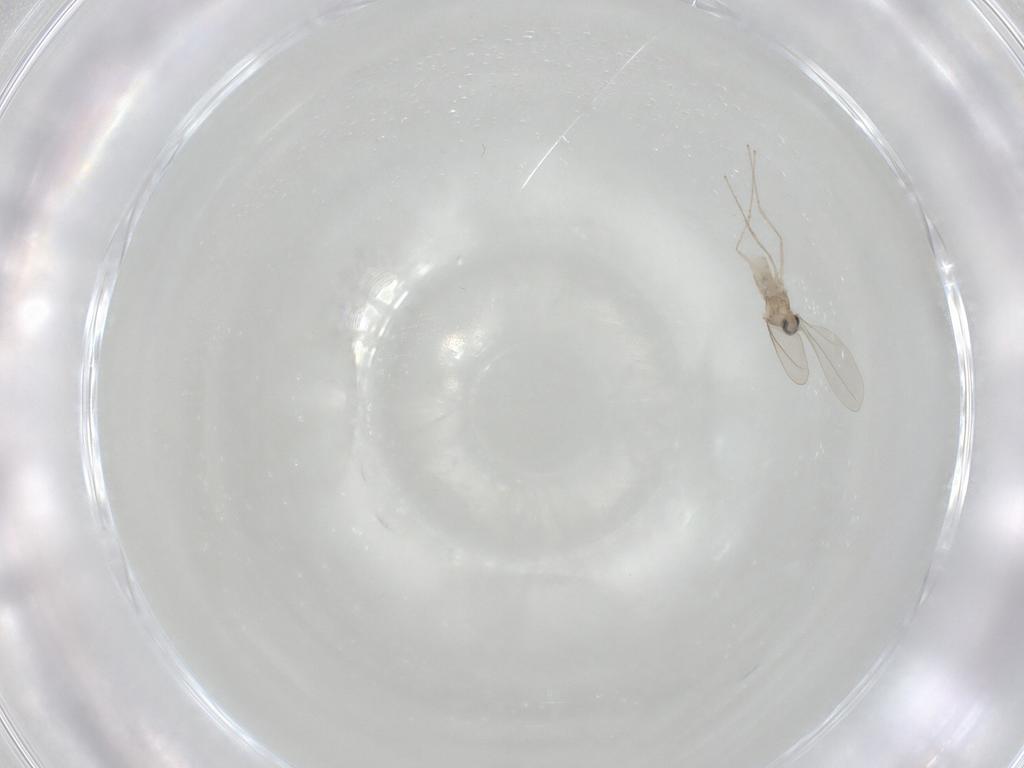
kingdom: Animalia
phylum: Arthropoda
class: Insecta
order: Diptera
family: Cecidomyiidae
